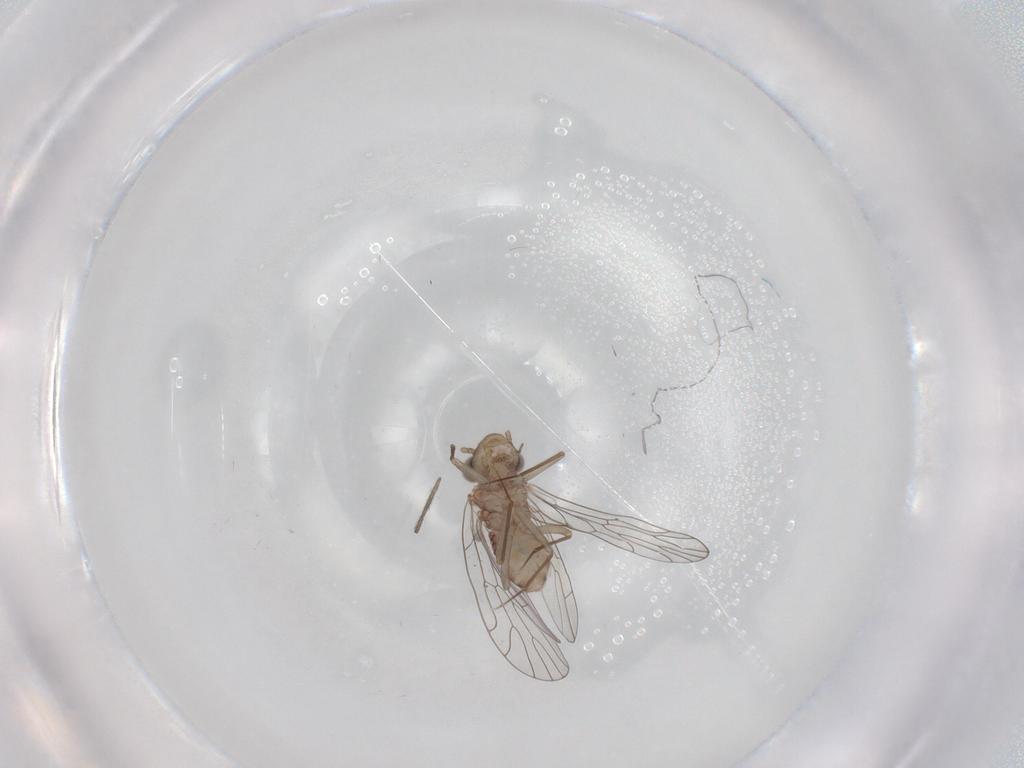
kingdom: Animalia
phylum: Arthropoda
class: Insecta
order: Psocodea
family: Amphientomidae
